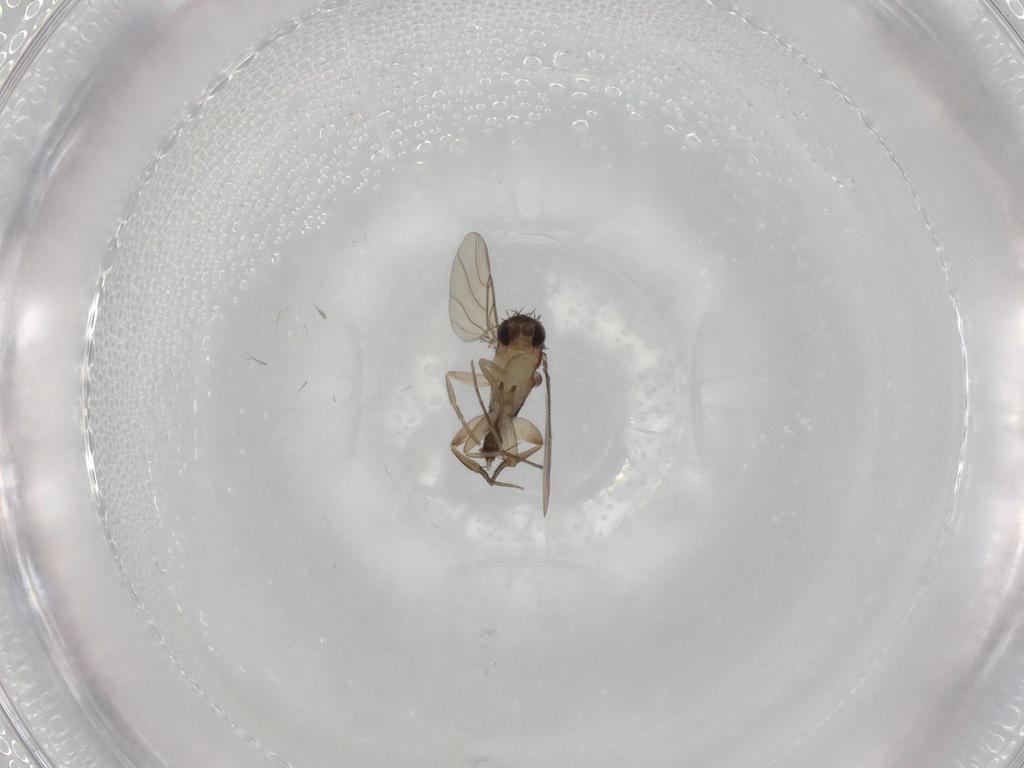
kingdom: Animalia
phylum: Arthropoda
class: Insecta
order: Diptera
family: Phoridae
